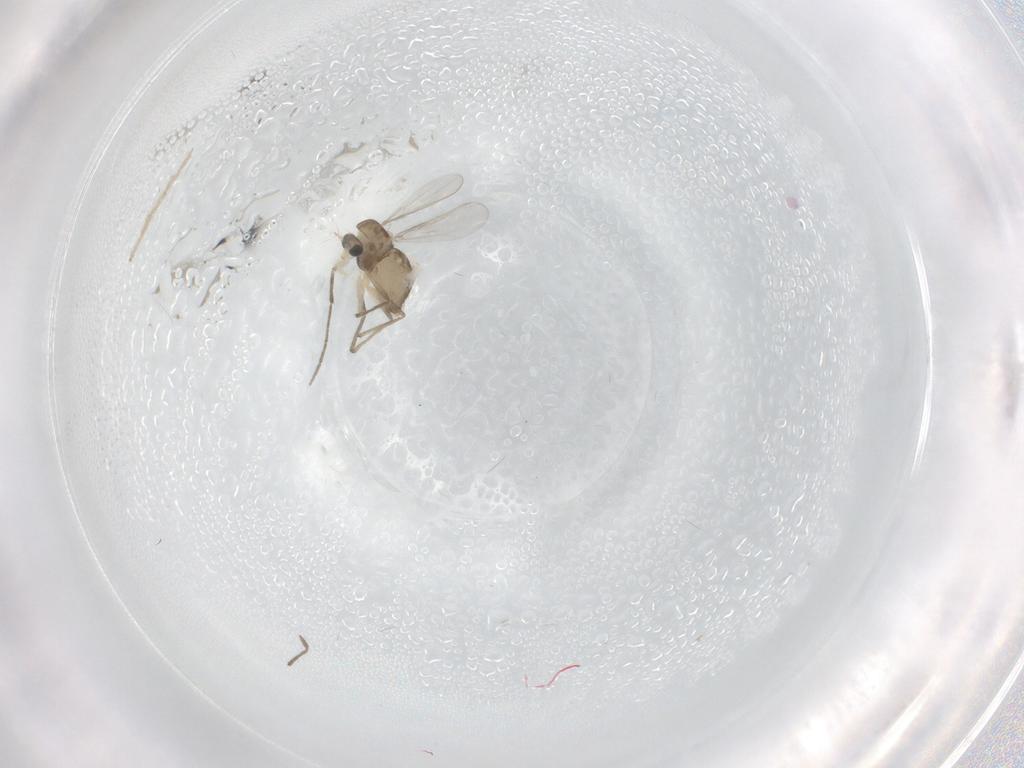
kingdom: Animalia
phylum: Arthropoda
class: Insecta
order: Diptera
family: Chironomidae
